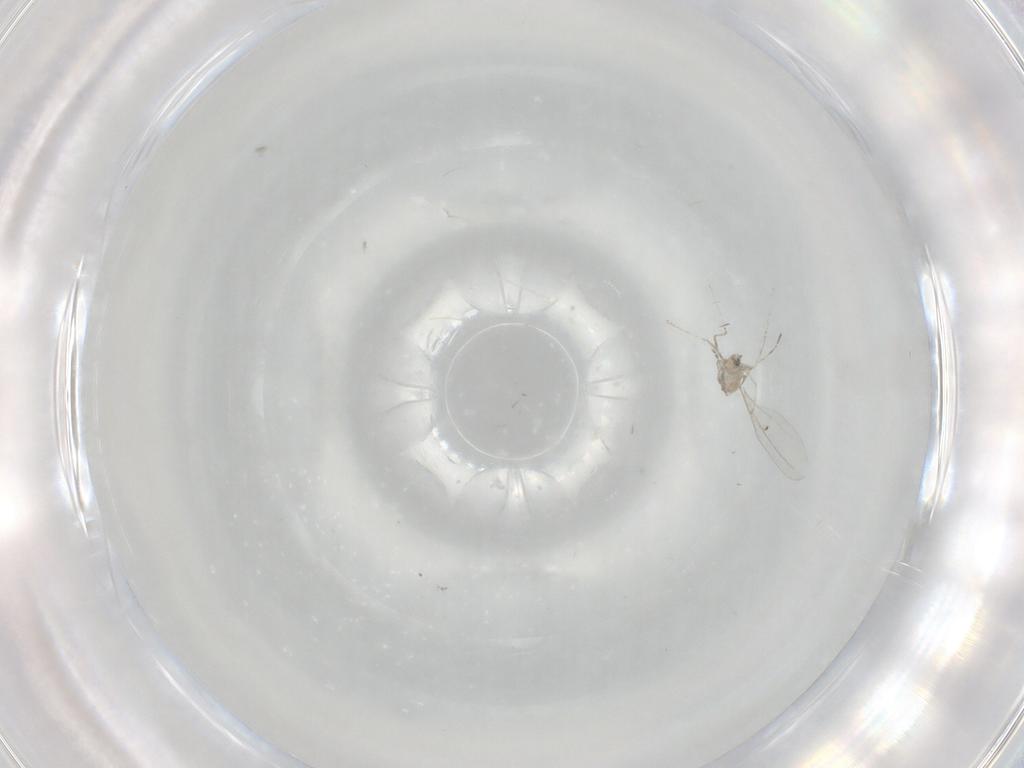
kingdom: Animalia
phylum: Arthropoda
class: Insecta
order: Diptera
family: Cecidomyiidae
